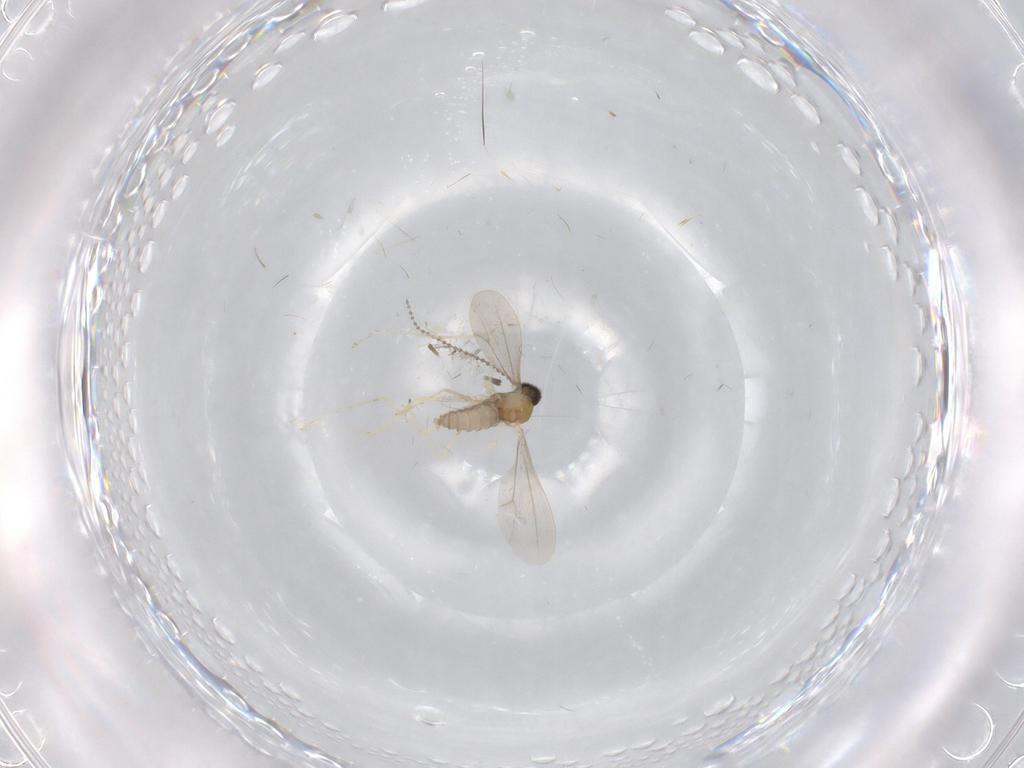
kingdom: Animalia
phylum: Arthropoda
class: Insecta
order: Diptera
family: Cecidomyiidae
